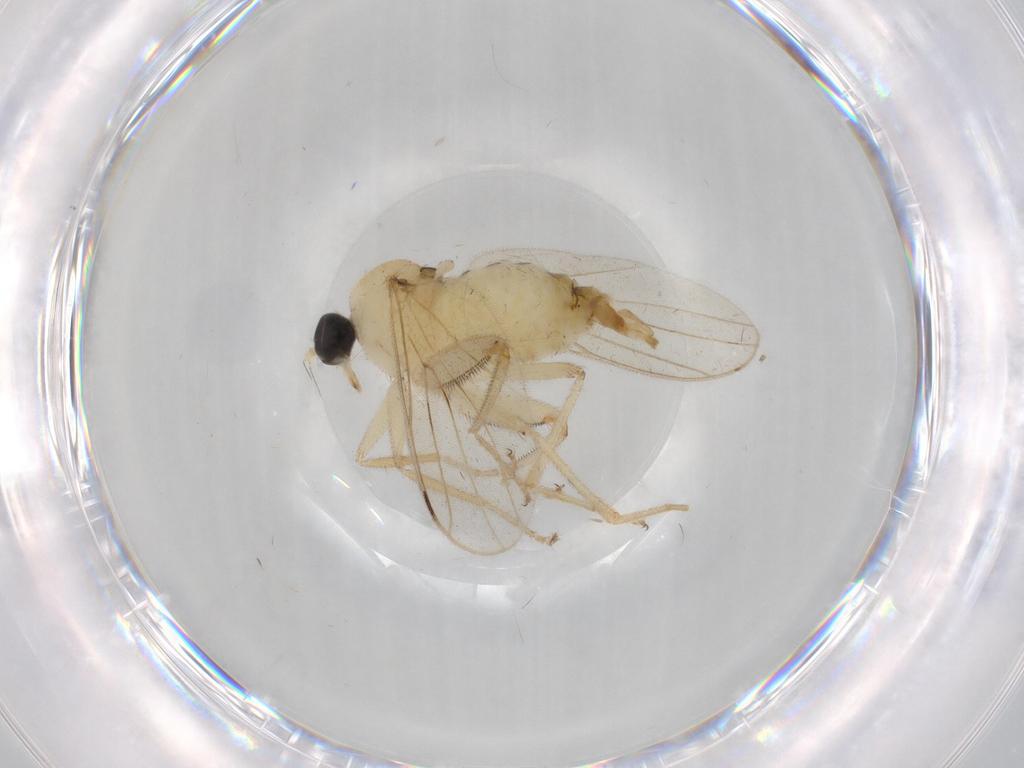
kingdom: Animalia
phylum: Arthropoda
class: Insecta
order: Diptera
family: Hybotidae
